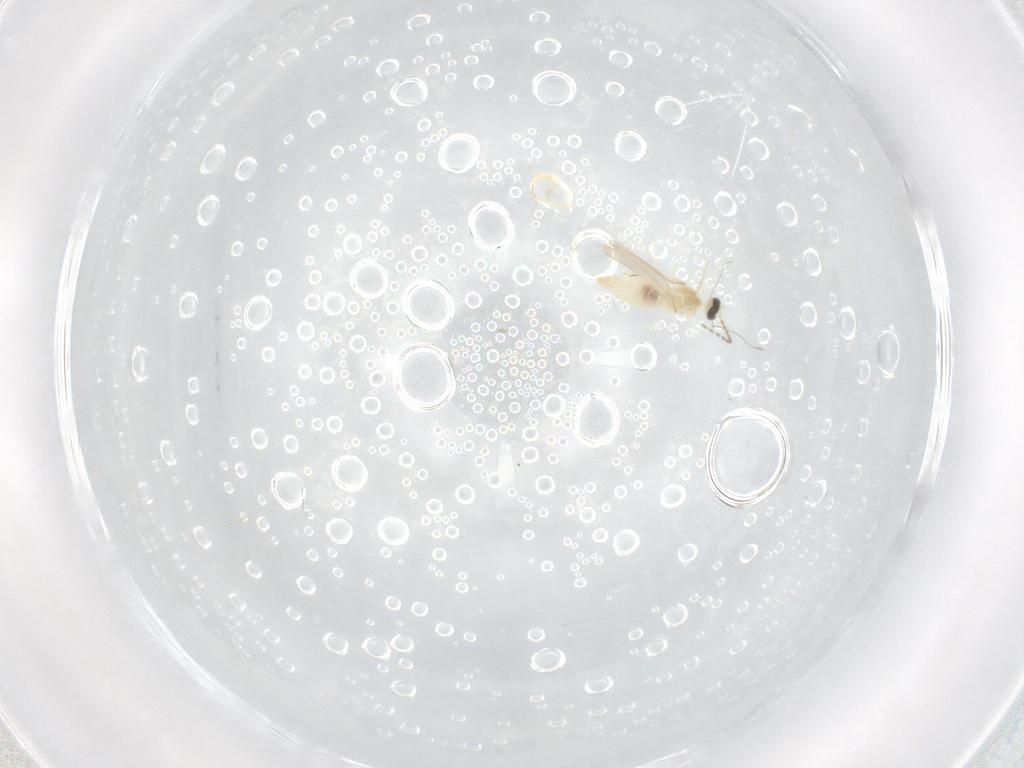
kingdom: Animalia
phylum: Arthropoda
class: Insecta
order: Diptera
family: Cecidomyiidae
